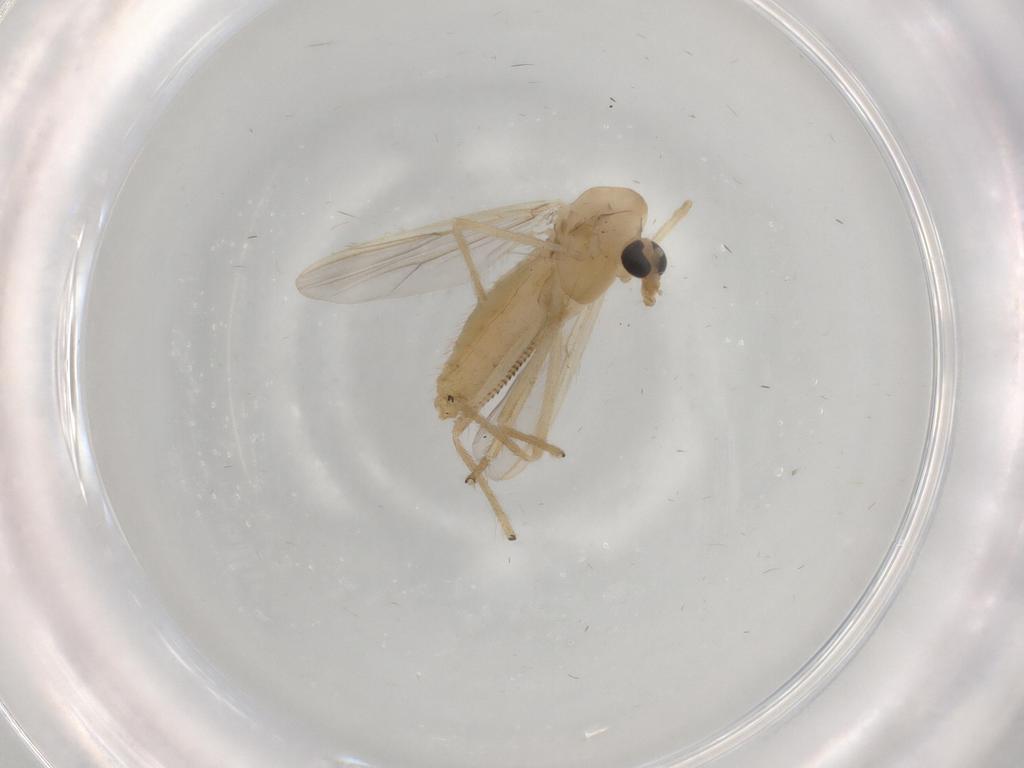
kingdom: Animalia
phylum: Arthropoda
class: Insecta
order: Diptera
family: Chironomidae
